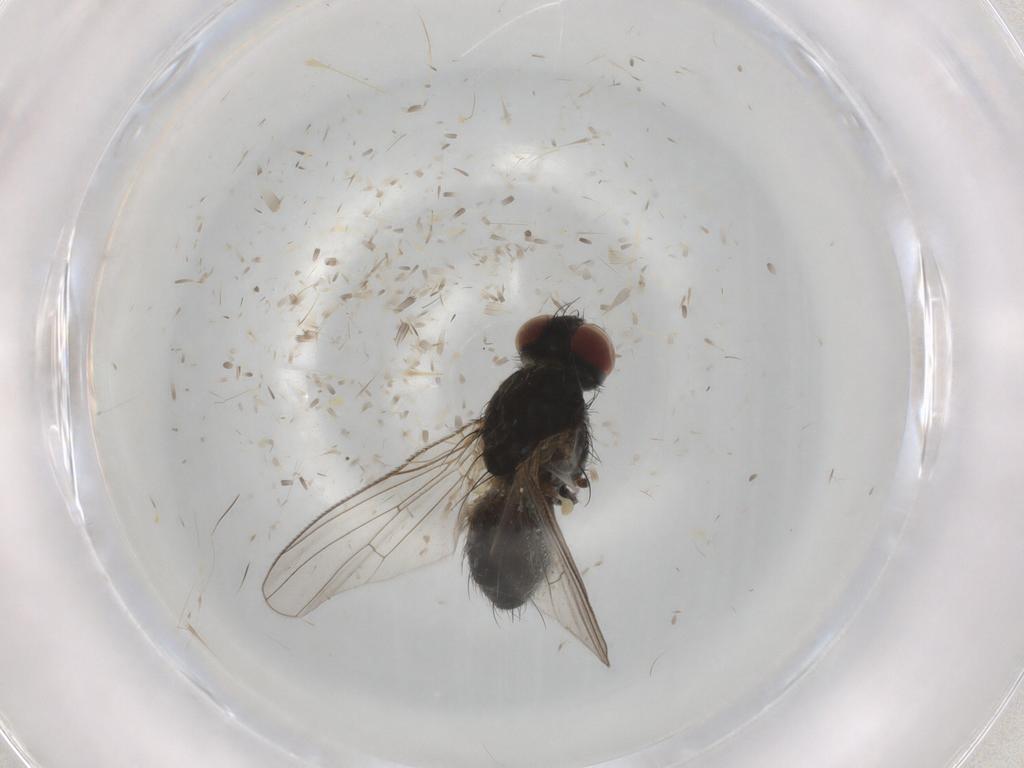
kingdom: Animalia
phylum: Arthropoda
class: Insecta
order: Diptera
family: Muscidae
